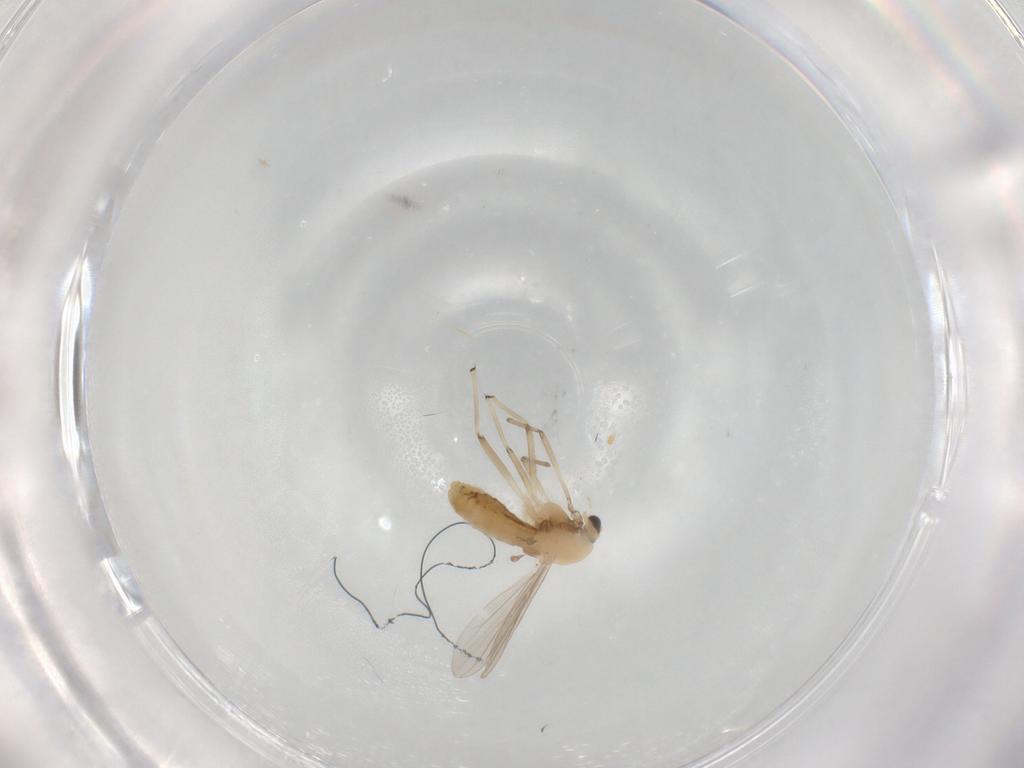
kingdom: Animalia
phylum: Arthropoda
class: Insecta
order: Diptera
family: Chironomidae
